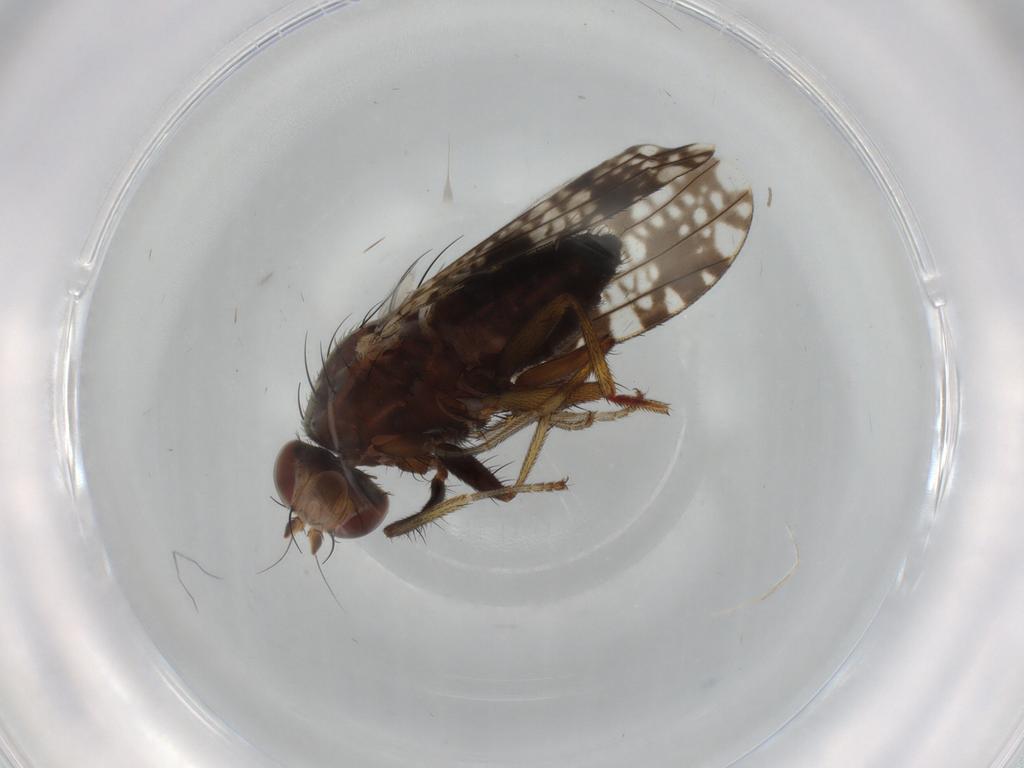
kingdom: Animalia
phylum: Arthropoda
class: Insecta
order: Diptera
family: Tephritidae
